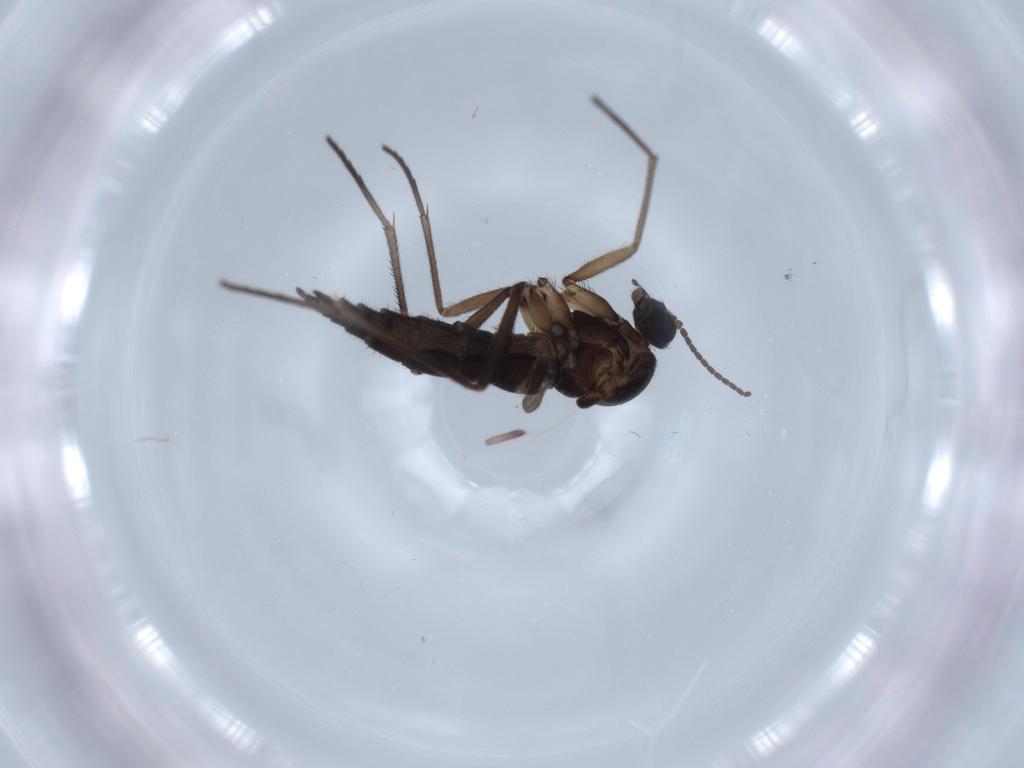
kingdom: Animalia
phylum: Arthropoda
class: Insecta
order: Diptera
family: Sciaridae
